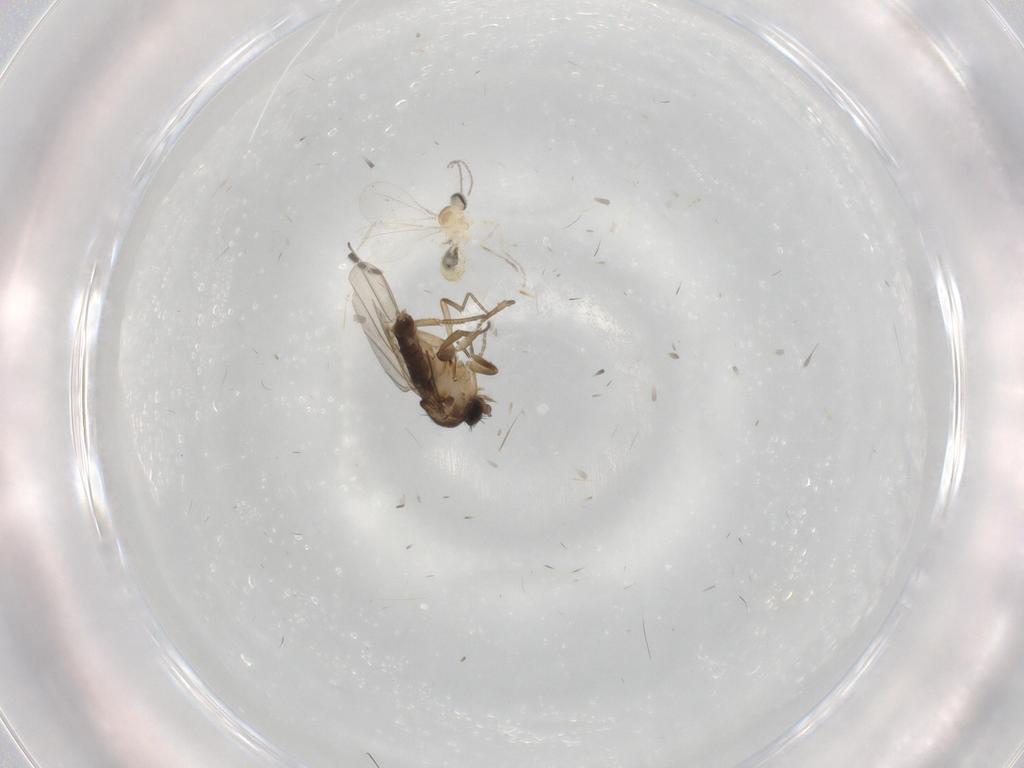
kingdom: Animalia
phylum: Arthropoda
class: Insecta
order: Diptera
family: Cecidomyiidae
